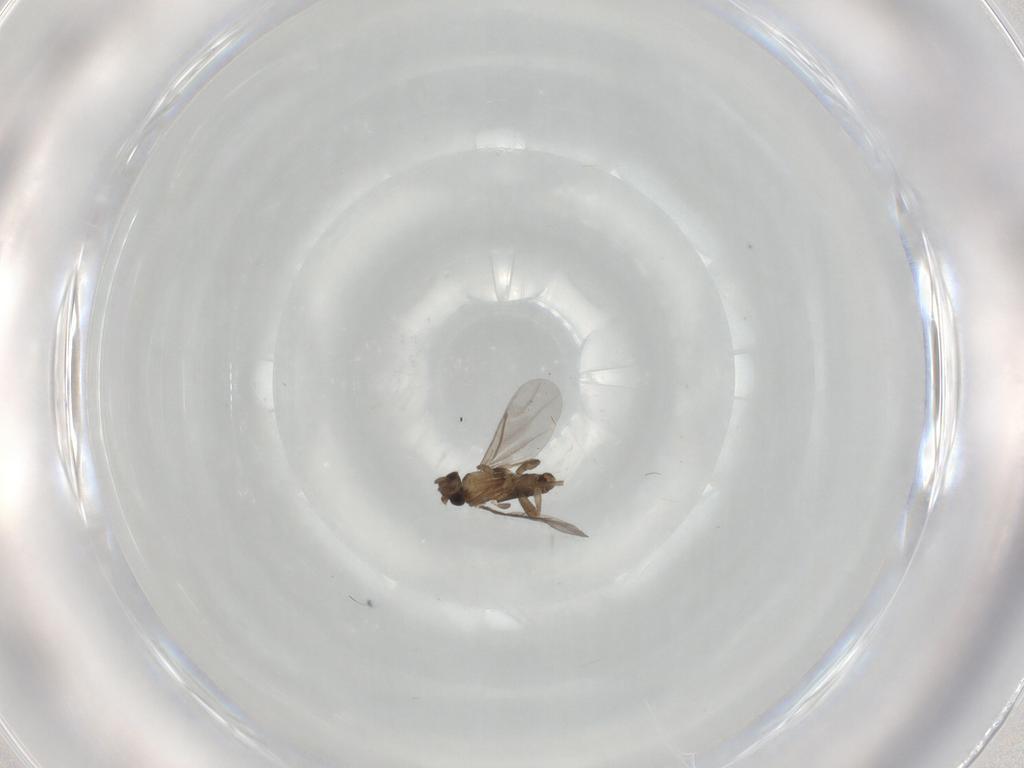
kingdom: Animalia
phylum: Arthropoda
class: Insecta
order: Diptera
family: Tabanidae
